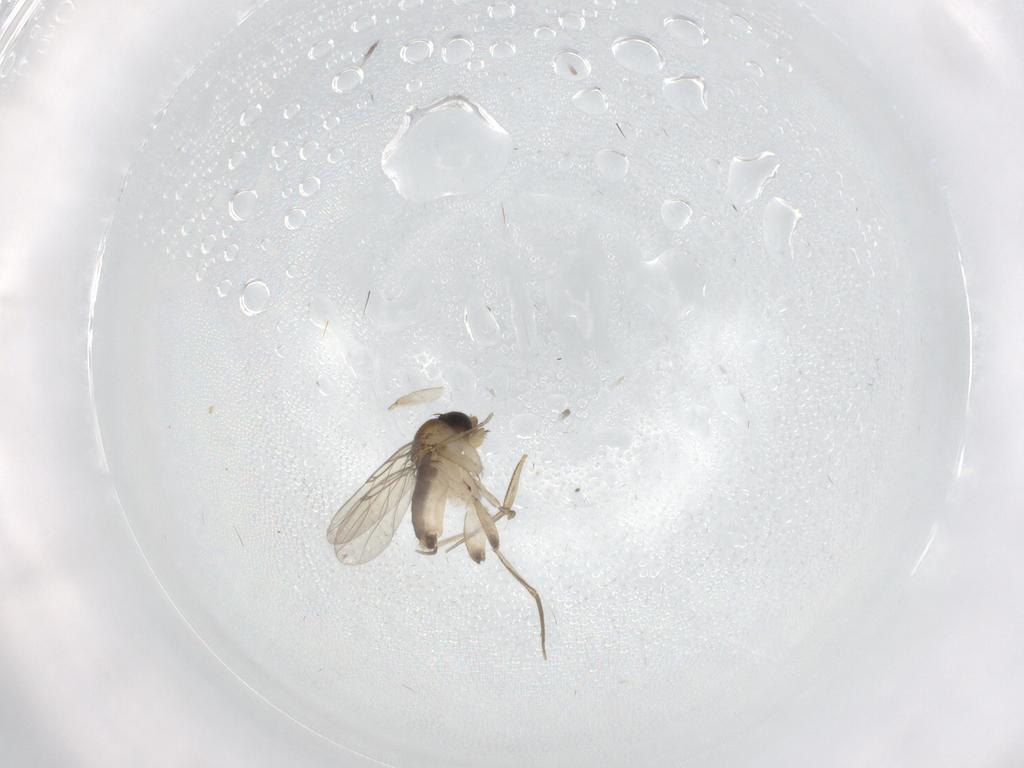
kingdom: Animalia
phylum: Arthropoda
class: Insecta
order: Diptera
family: Phoridae
